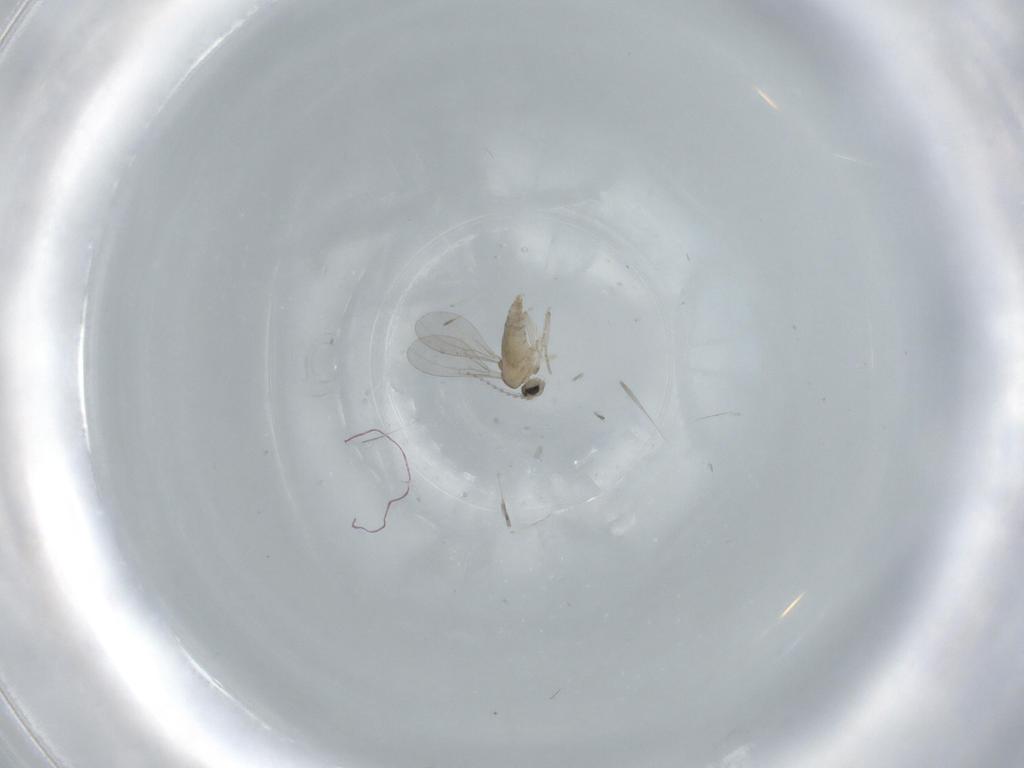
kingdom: Animalia
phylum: Arthropoda
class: Insecta
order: Diptera
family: Cecidomyiidae
